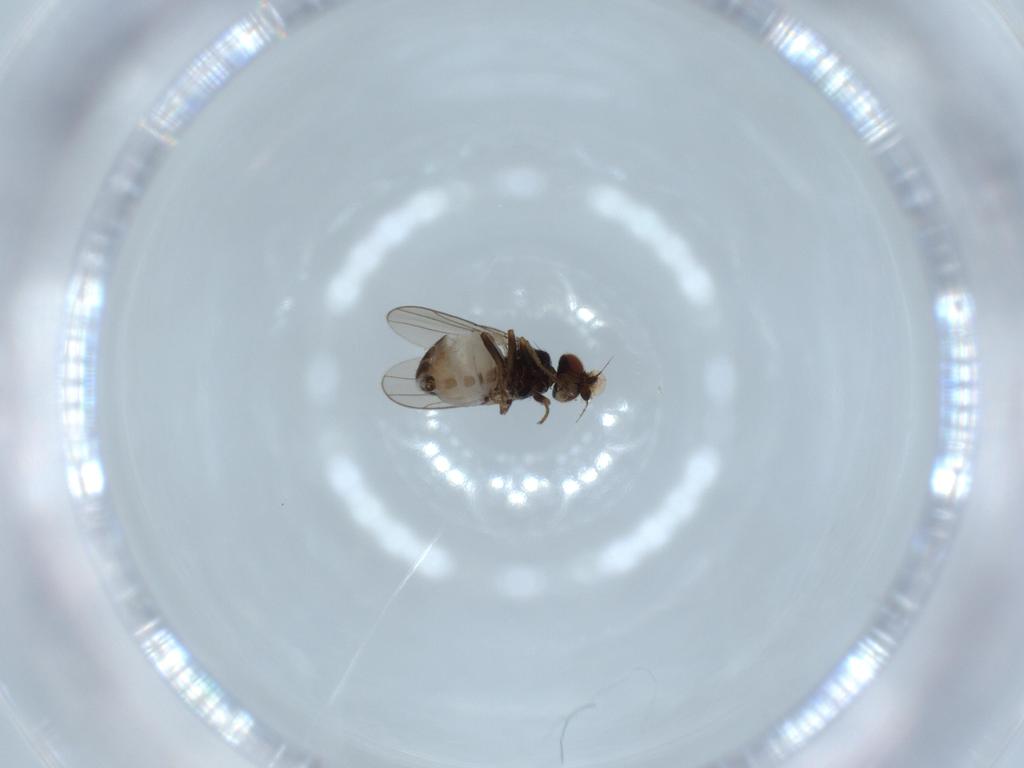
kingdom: Animalia
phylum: Arthropoda
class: Insecta
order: Diptera
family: Chloropidae
